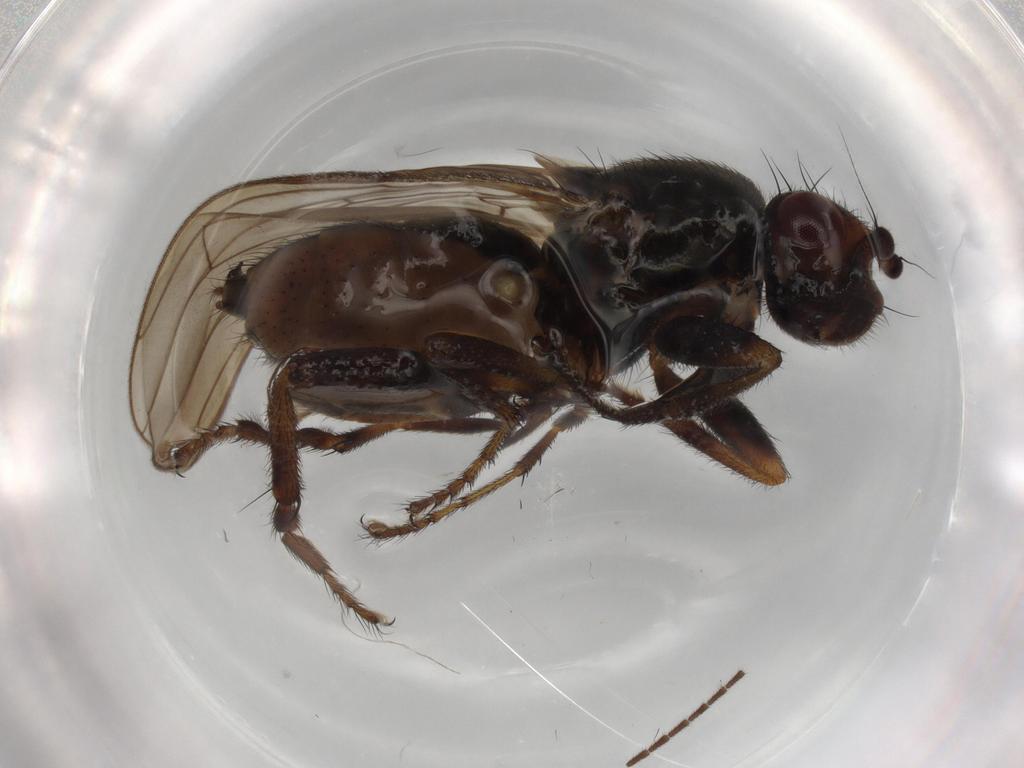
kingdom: Animalia
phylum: Arthropoda
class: Insecta
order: Diptera
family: Hybotidae
